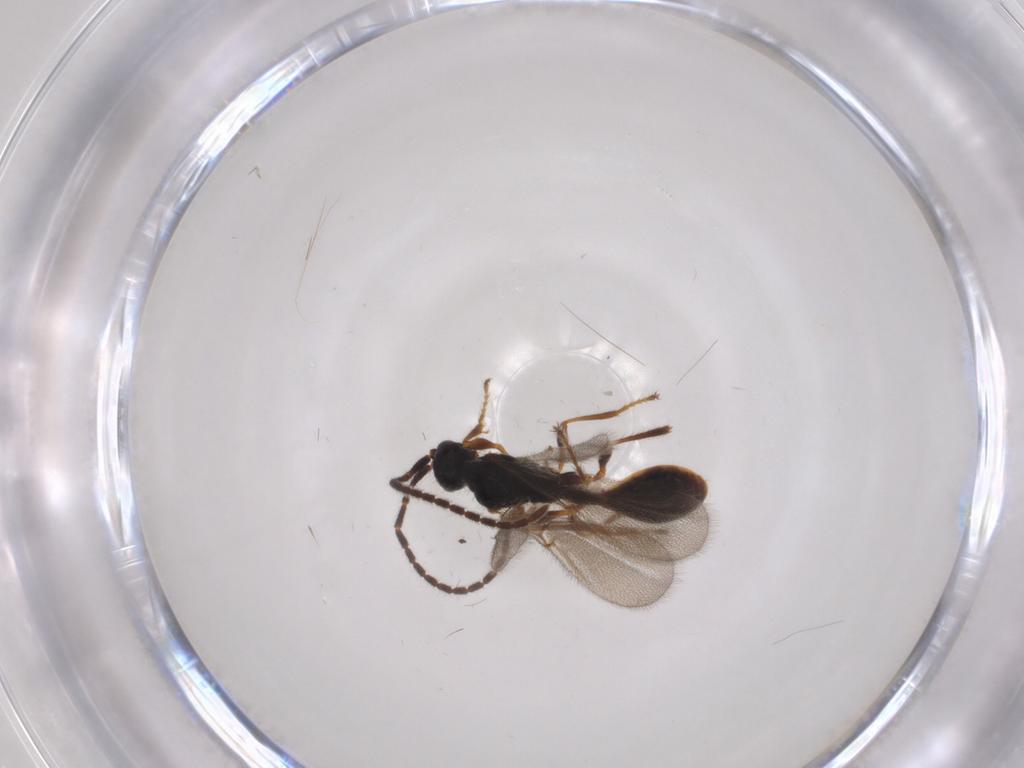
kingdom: Animalia
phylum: Arthropoda
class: Insecta
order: Hymenoptera
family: Diapriidae
